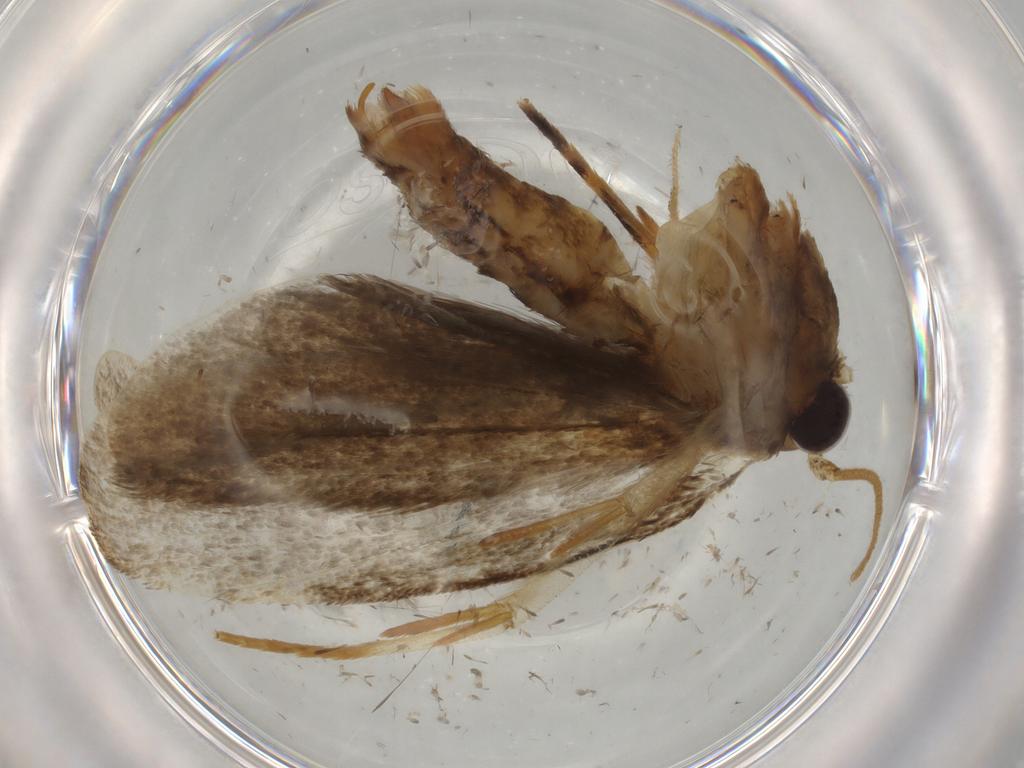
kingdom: Animalia
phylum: Arthropoda
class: Insecta
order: Lepidoptera
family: Tineidae
